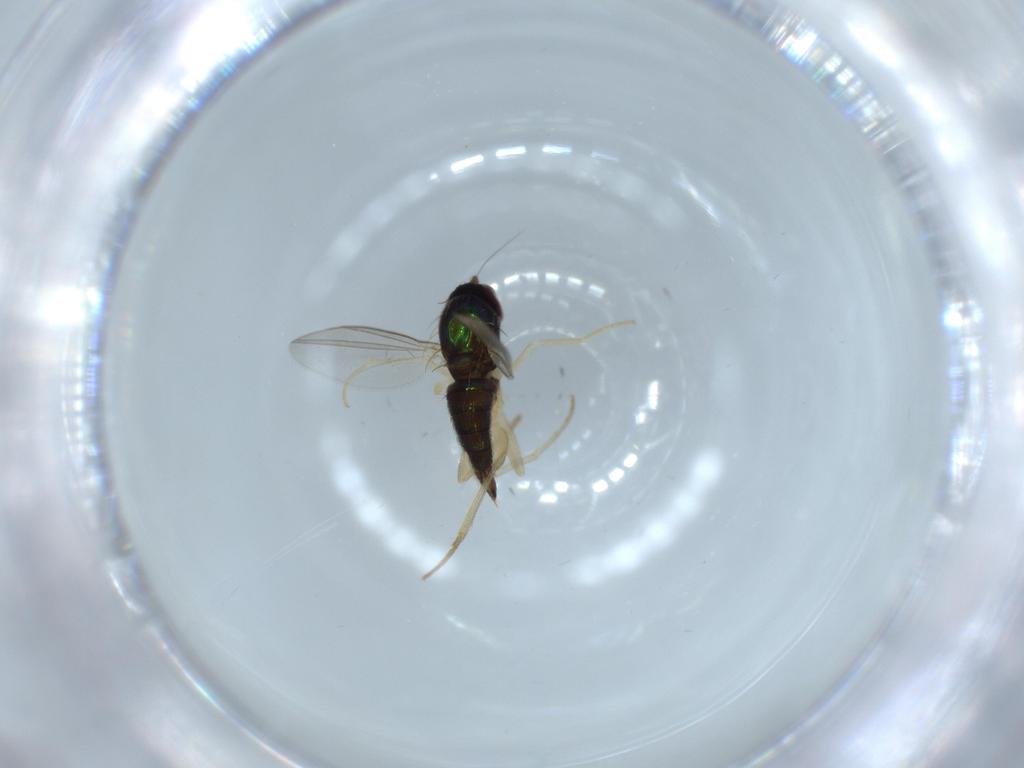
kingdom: Animalia
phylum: Arthropoda
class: Insecta
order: Diptera
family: Dolichopodidae
